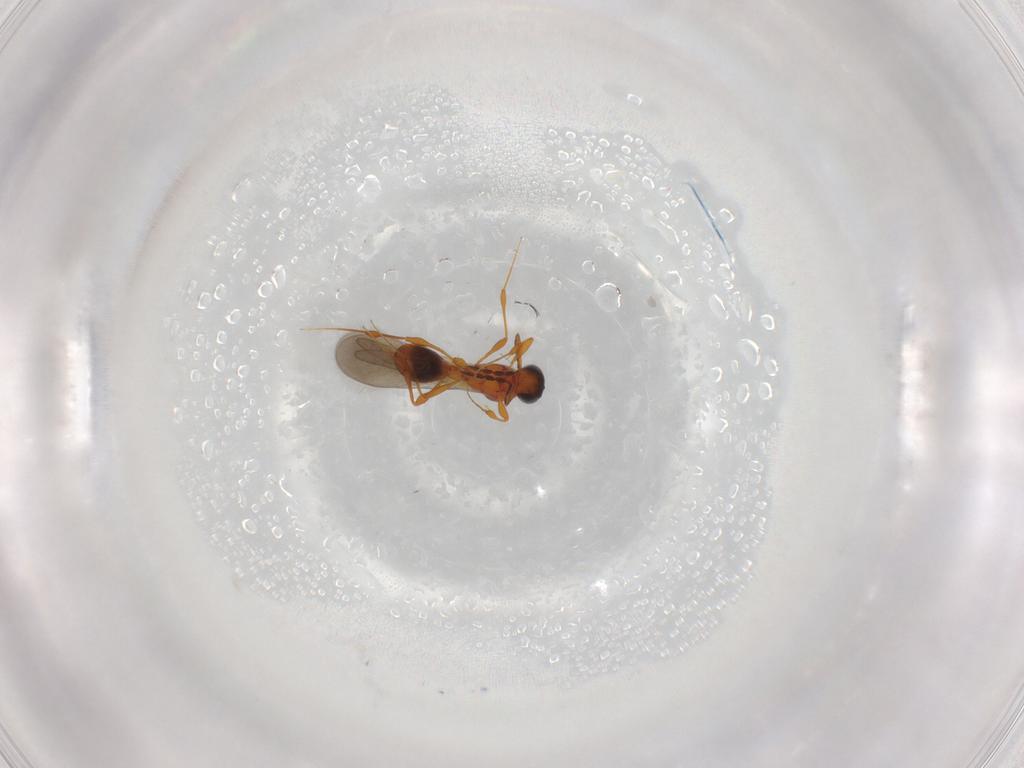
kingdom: Animalia
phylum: Arthropoda
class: Insecta
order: Hymenoptera
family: Platygastridae
